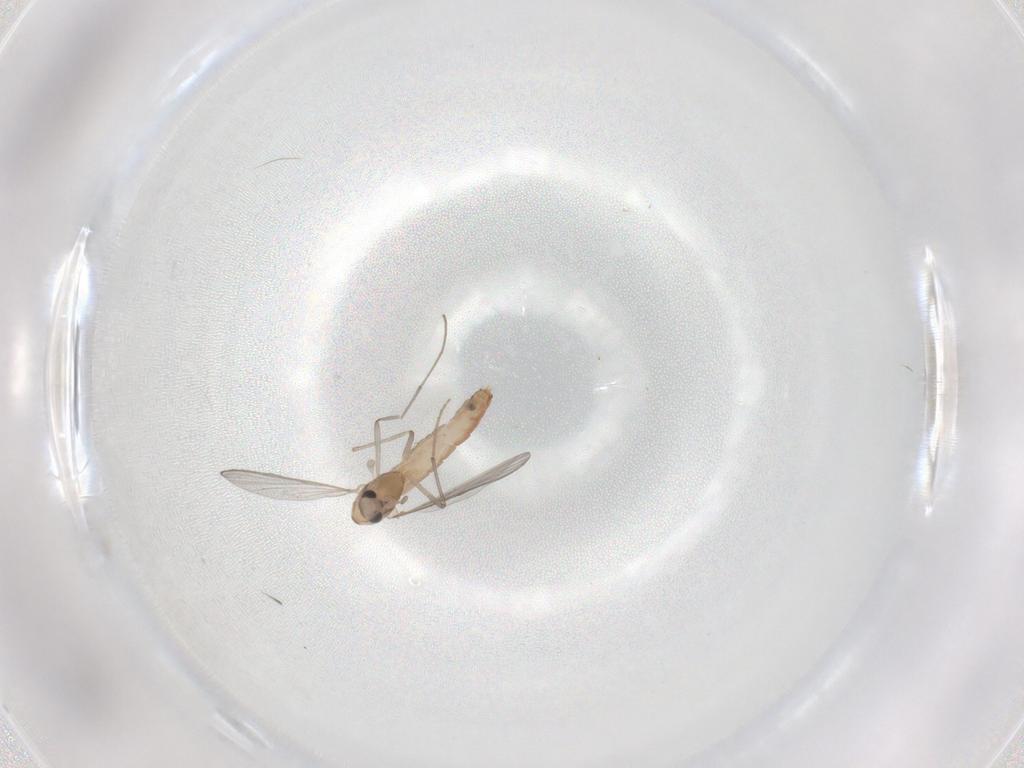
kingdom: Animalia
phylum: Arthropoda
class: Insecta
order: Diptera
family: Chironomidae
